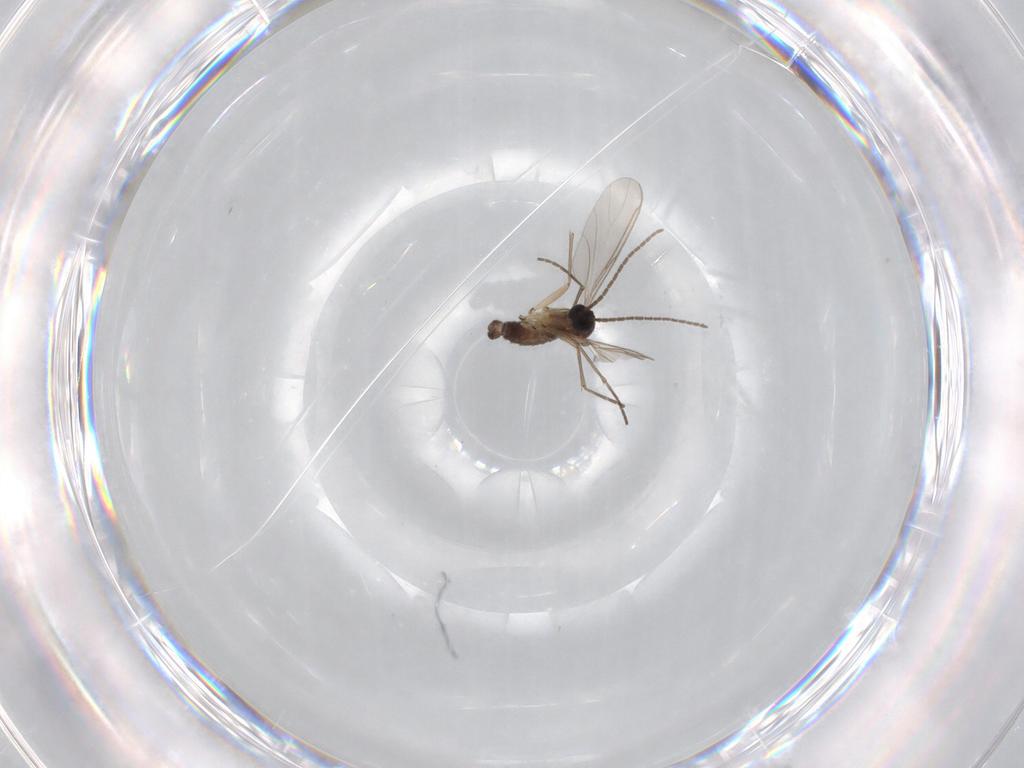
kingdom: Animalia
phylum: Arthropoda
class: Insecta
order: Diptera
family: Sciaridae
